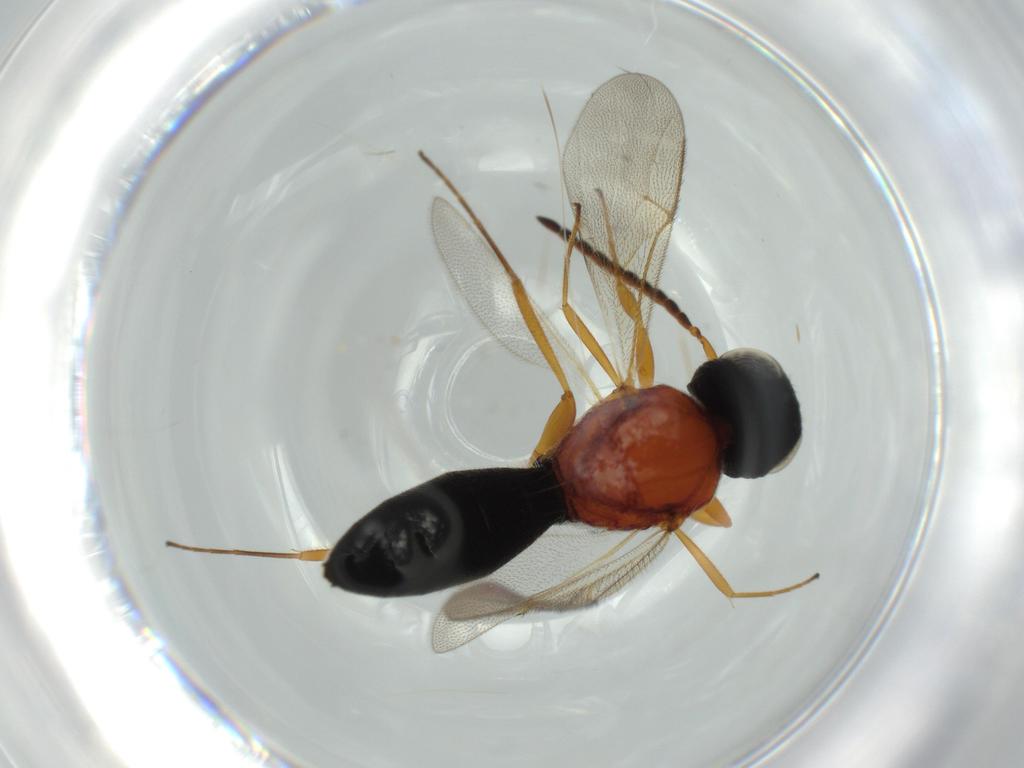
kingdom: Animalia
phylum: Arthropoda
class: Insecta
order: Hymenoptera
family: Scelionidae
